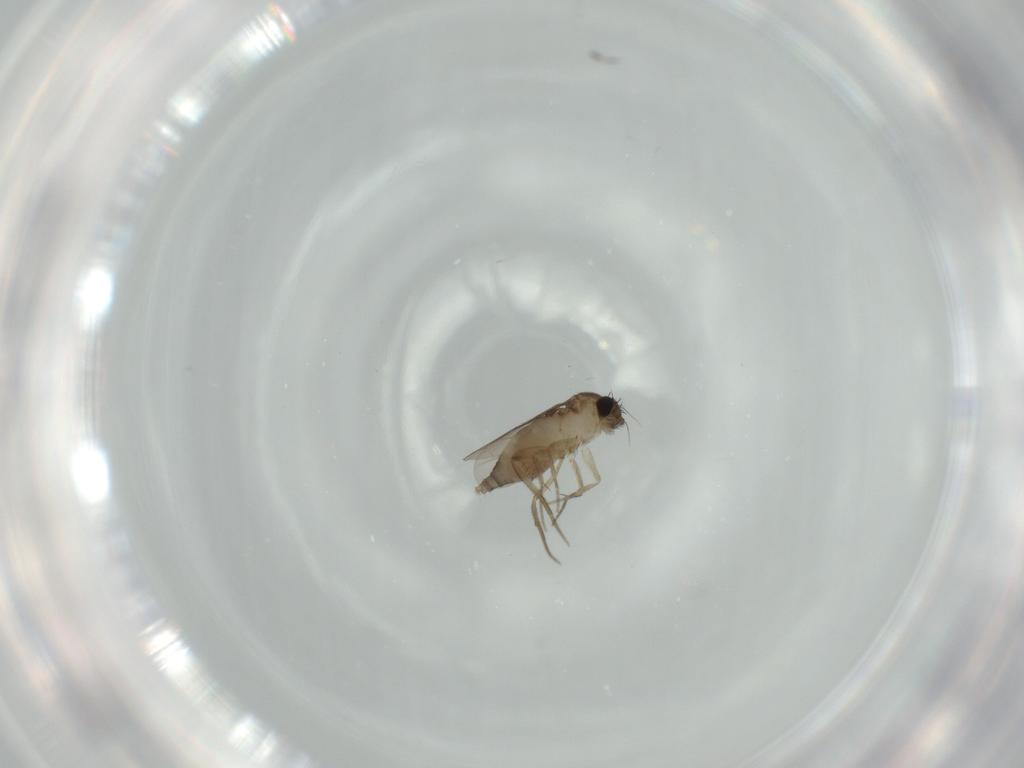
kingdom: Animalia
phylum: Arthropoda
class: Insecta
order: Diptera
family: Phoridae
